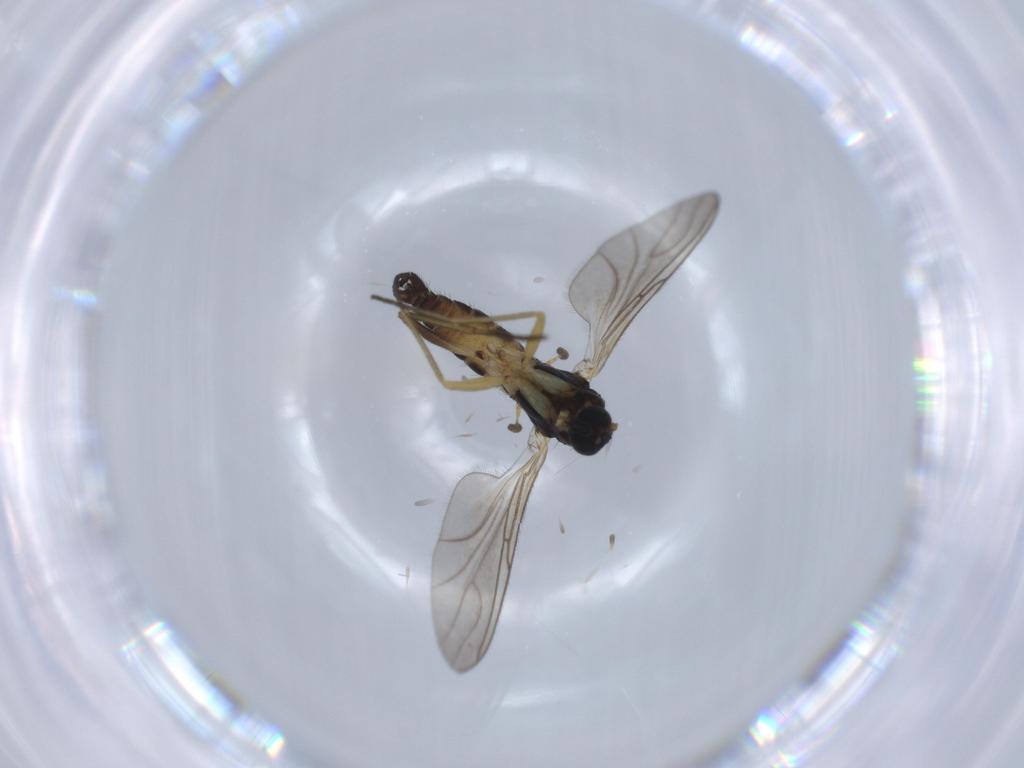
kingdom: Animalia
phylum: Arthropoda
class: Insecta
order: Diptera
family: Sciaridae
